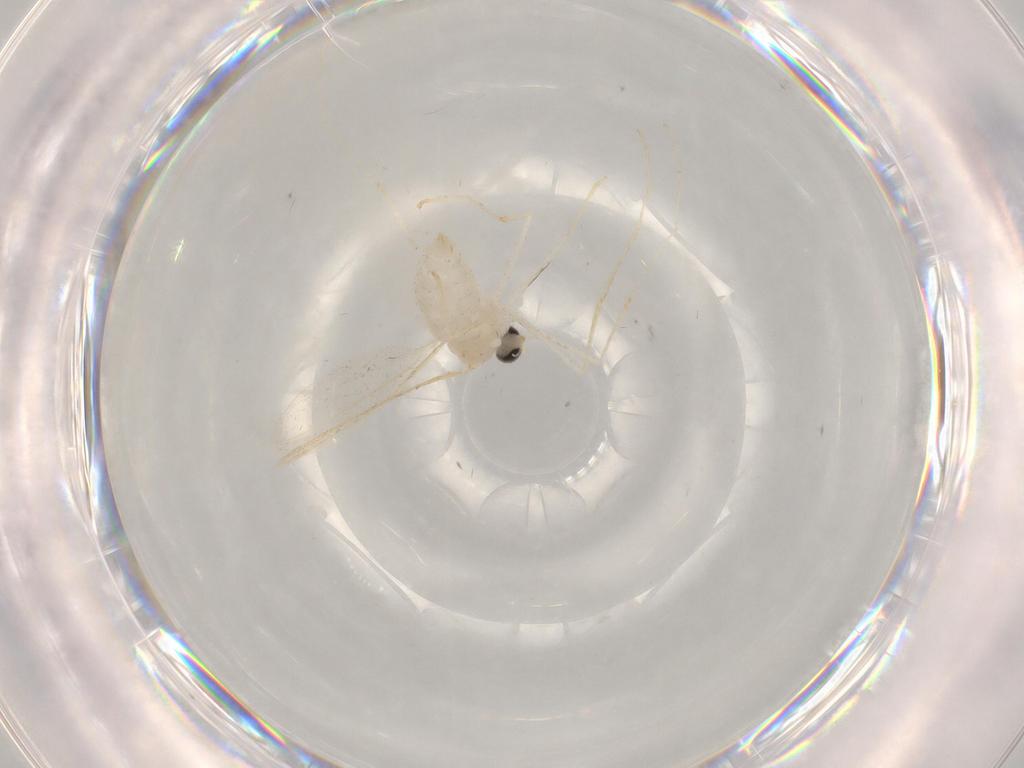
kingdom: Animalia
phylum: Arthropoda
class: Insecta
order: Diptera
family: Cecidomyiidae
